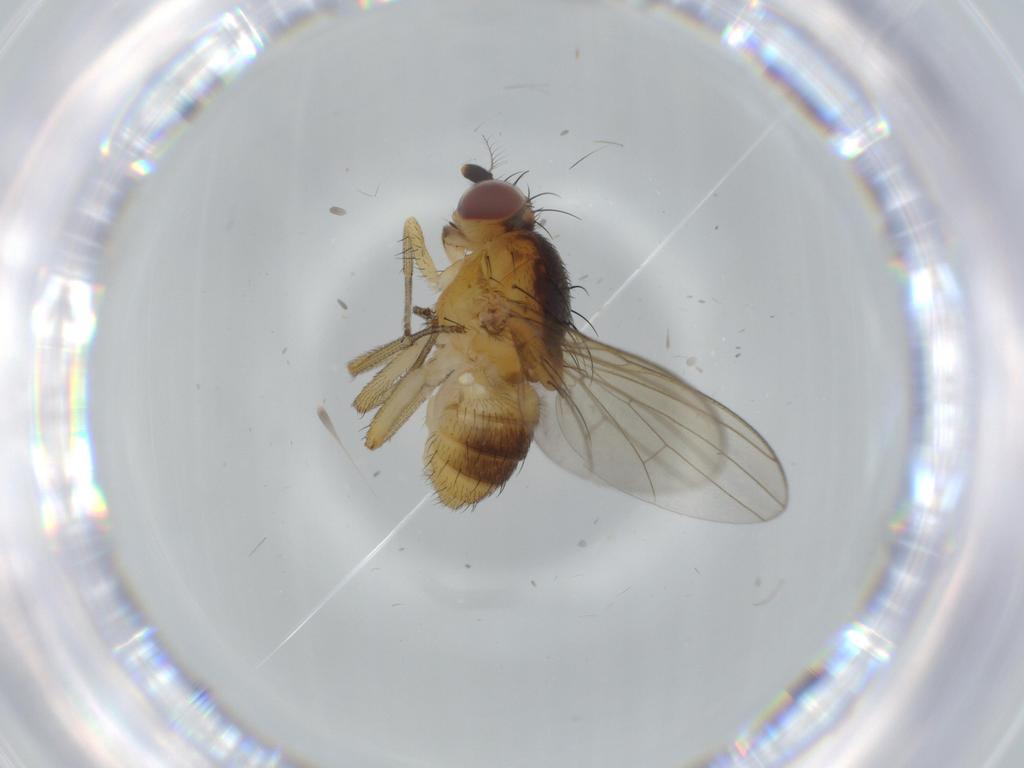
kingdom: Animalia
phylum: Arthropoda
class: Insecta
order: Diptera
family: Cecidomyiidae
